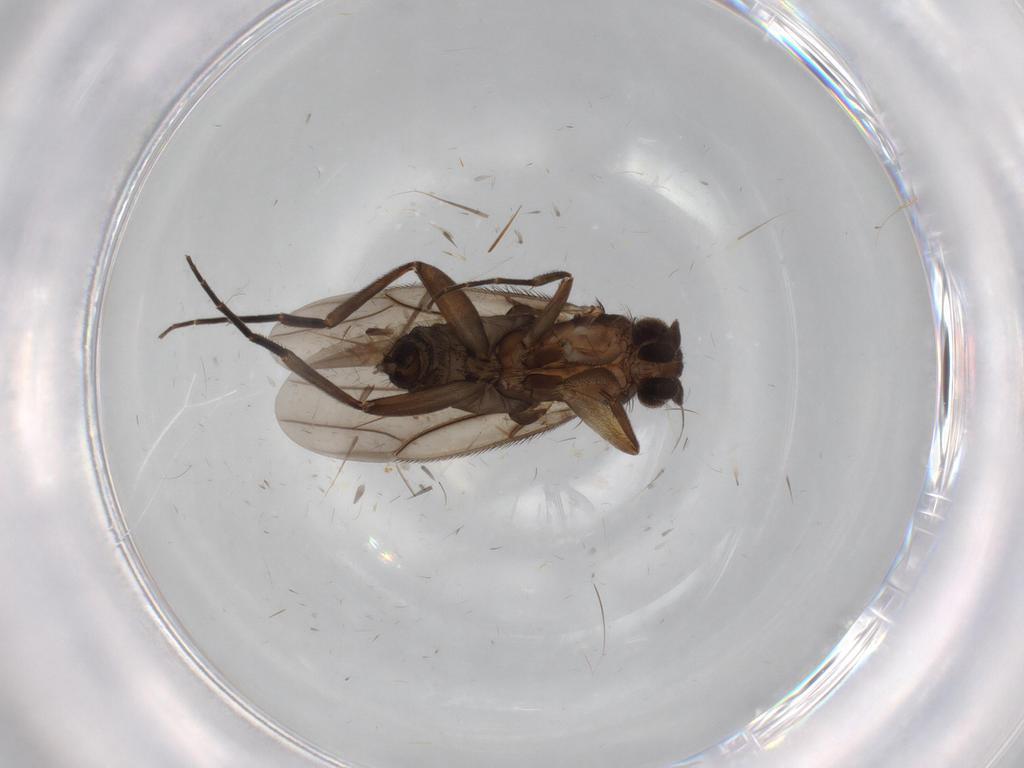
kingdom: Animalia
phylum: Arthropoda
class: Insecta
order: Diptera
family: Phoridae
